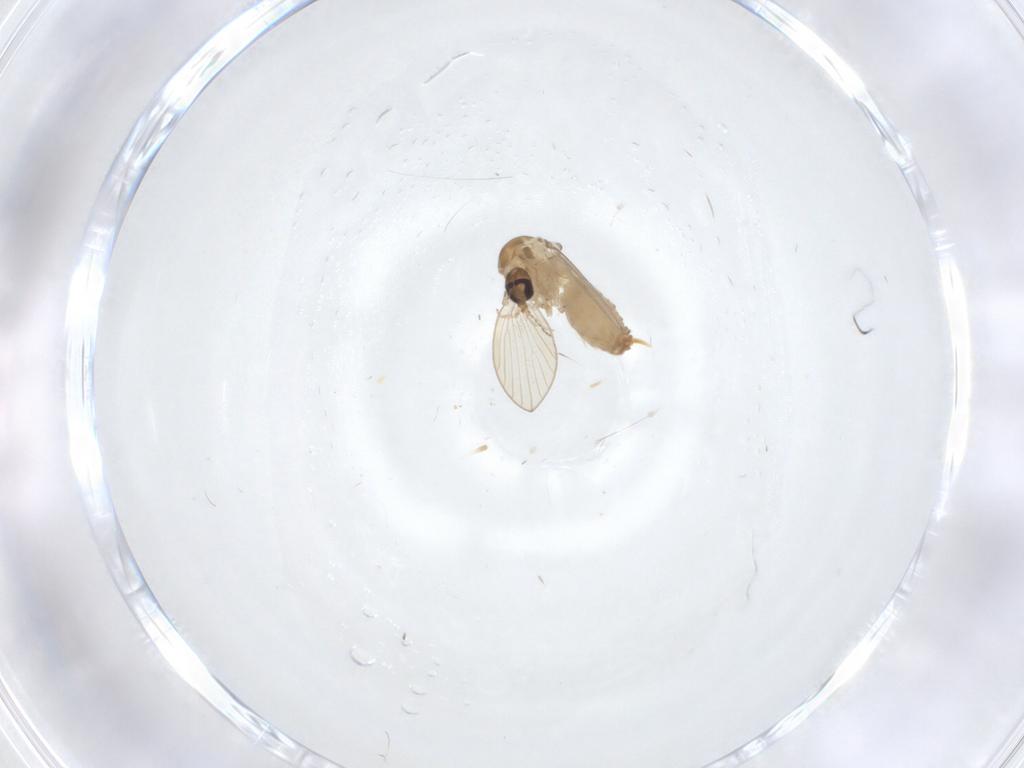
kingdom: Animalia
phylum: Arthropoda
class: Insecta
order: Diptera
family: Psychodidae
